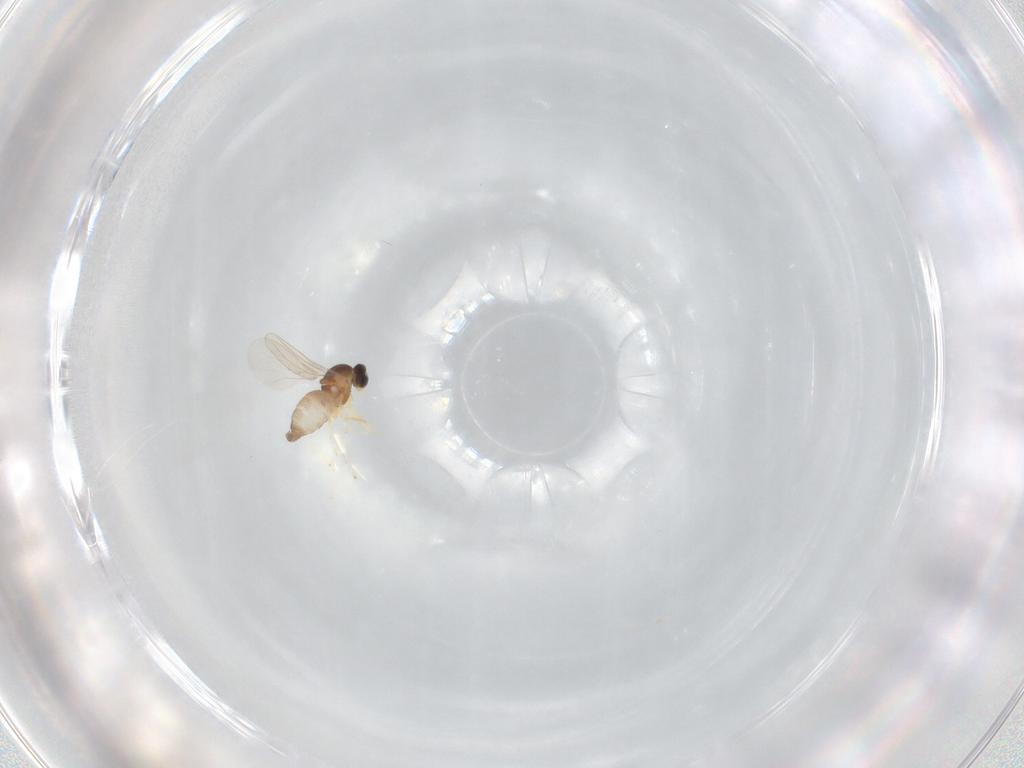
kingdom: Animalia
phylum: Arthropoda
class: Insecta
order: Diptera
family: Cecidomyiidae
